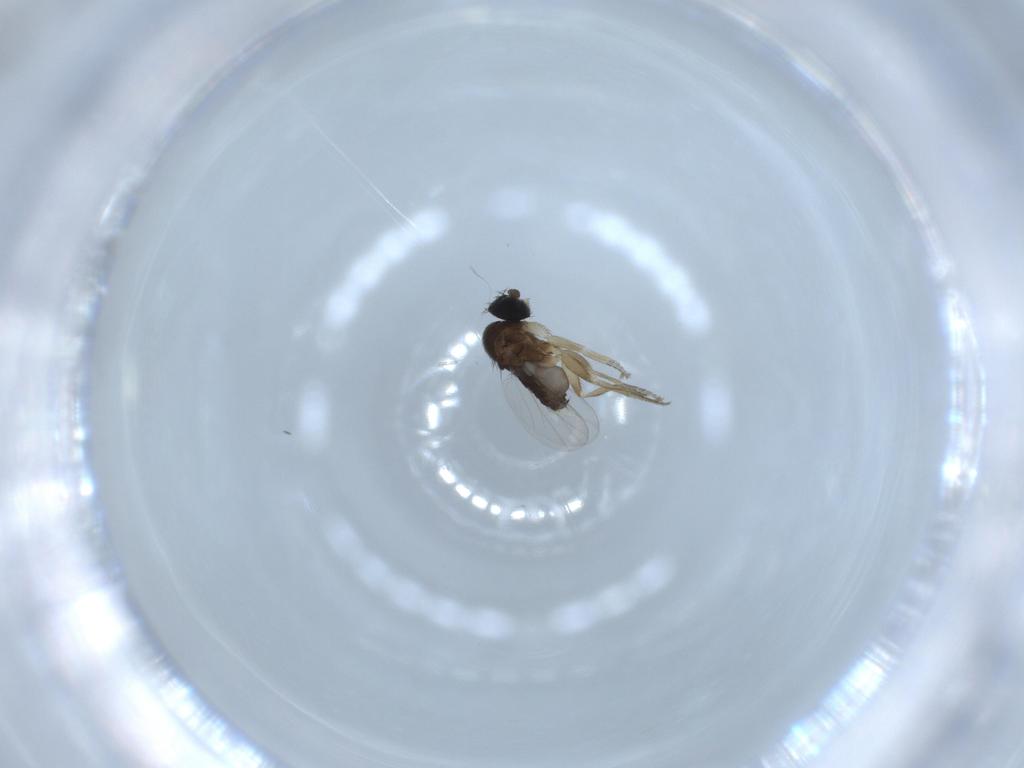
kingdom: Animalia
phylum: Arthropoda
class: Insecta
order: Diptera
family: Phoridae
